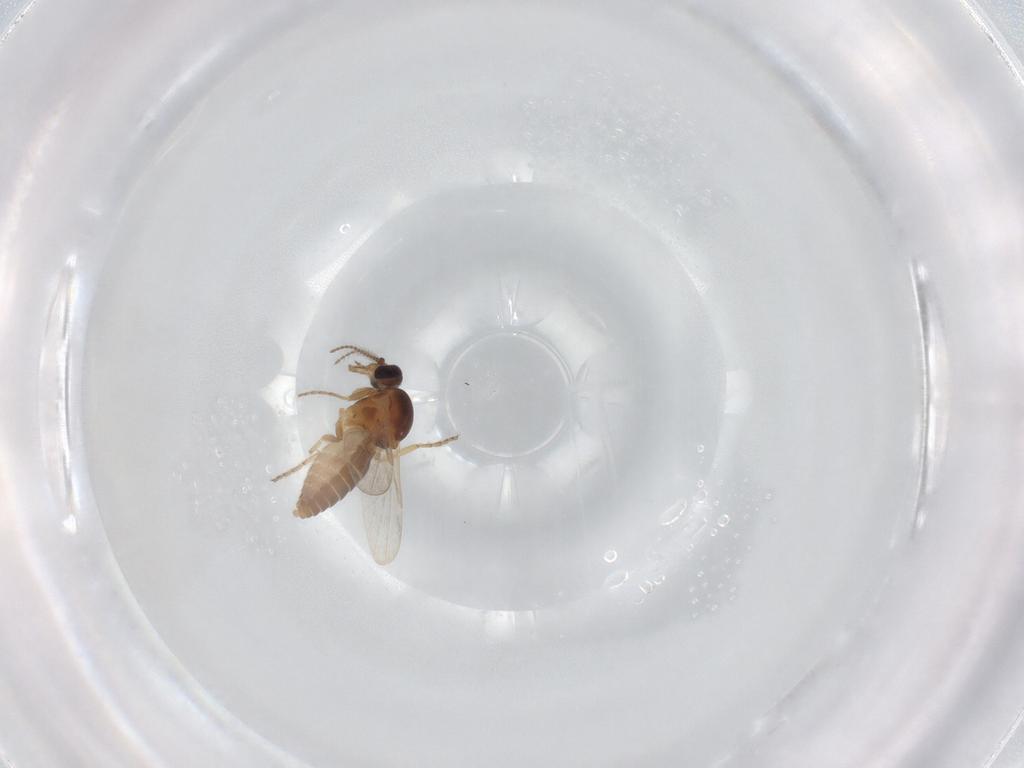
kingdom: Animalia
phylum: Arthropoda
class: Insecta
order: Diptera
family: Ceratopogonidae
